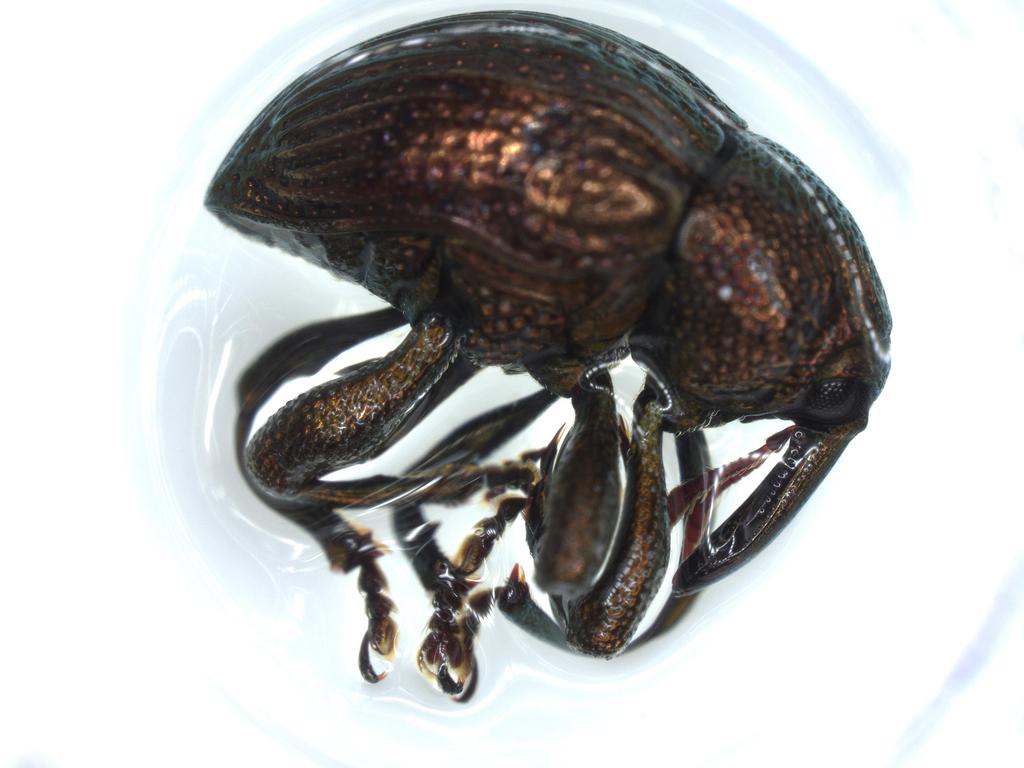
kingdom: Animalia
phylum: Arthropoda
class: Insecta
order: Coleoptera
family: Curculionidae
